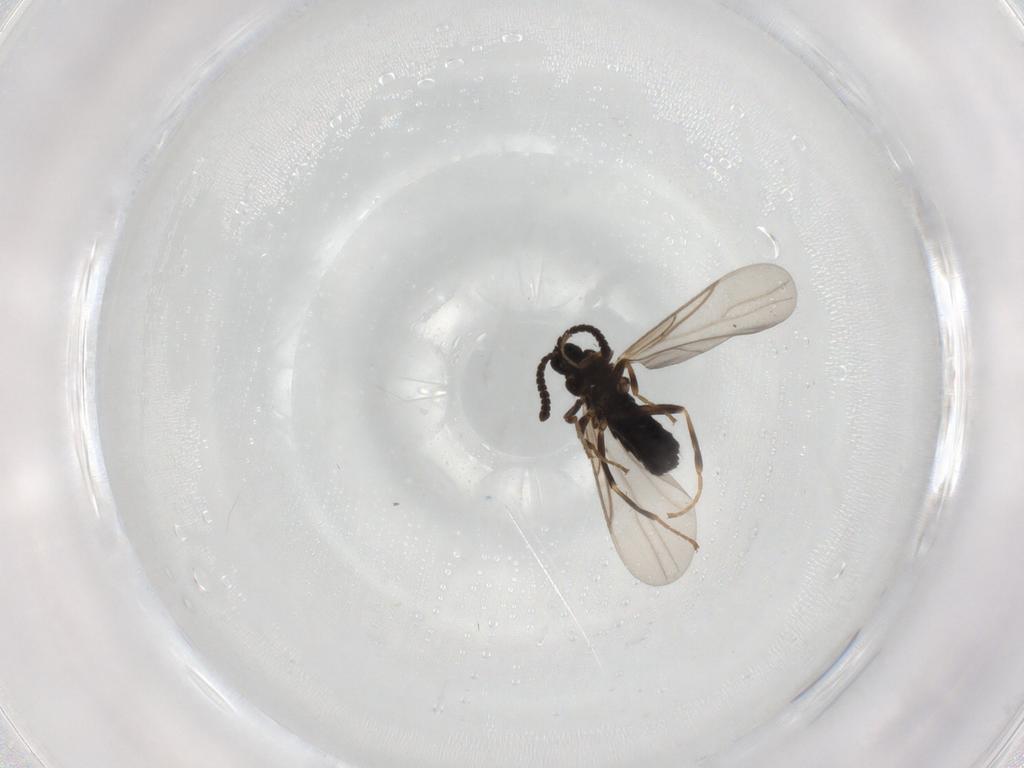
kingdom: Animalia
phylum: Arthropoda
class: Insecta
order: Diptera
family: Scatopsidae
